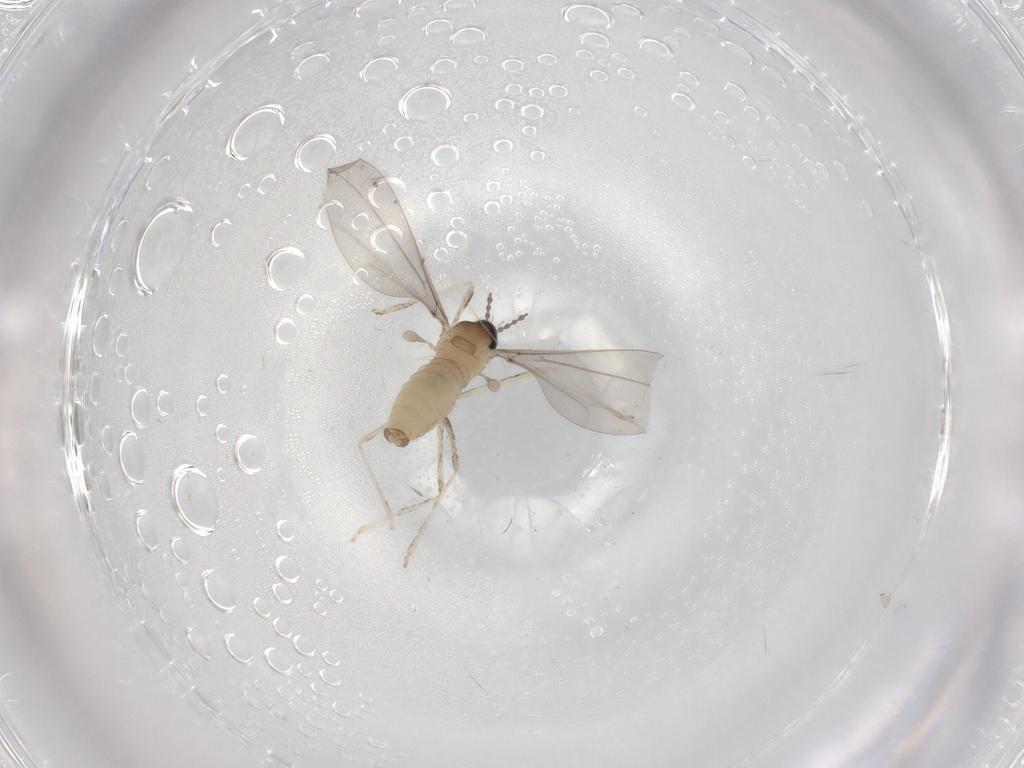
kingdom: Animalia
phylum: Arthropoda
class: Insecta
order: Diptera
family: Cecidomyiidae
